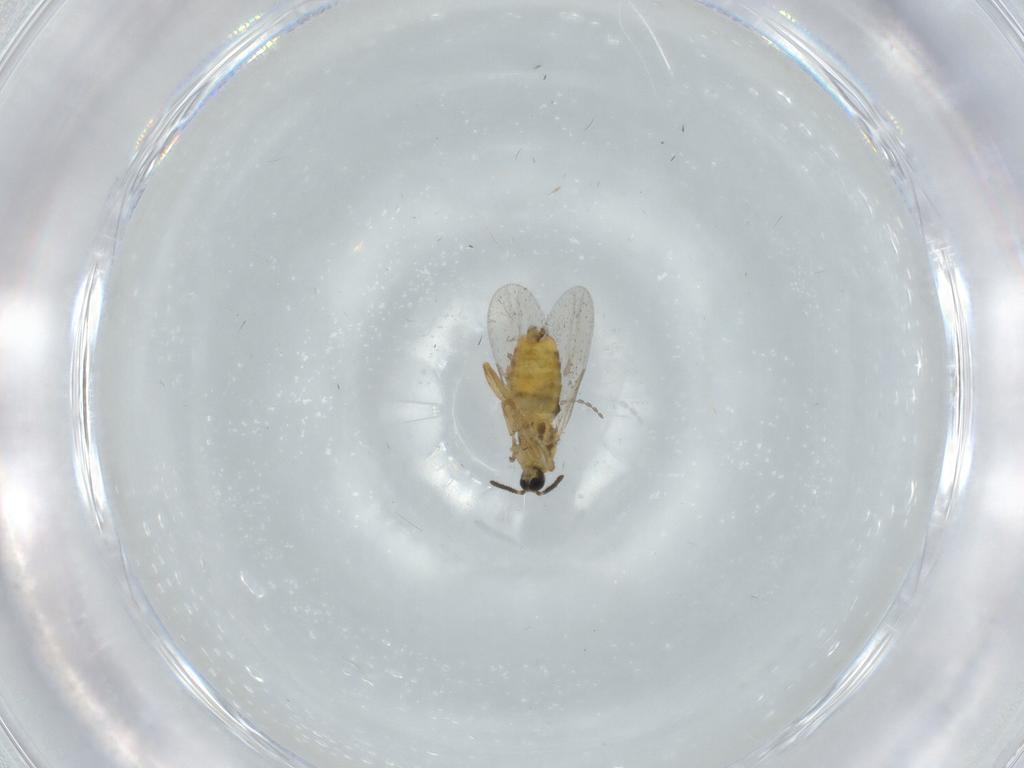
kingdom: Animalia
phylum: Arthropoda
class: Insecta
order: Diptera
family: Scatopsidae
